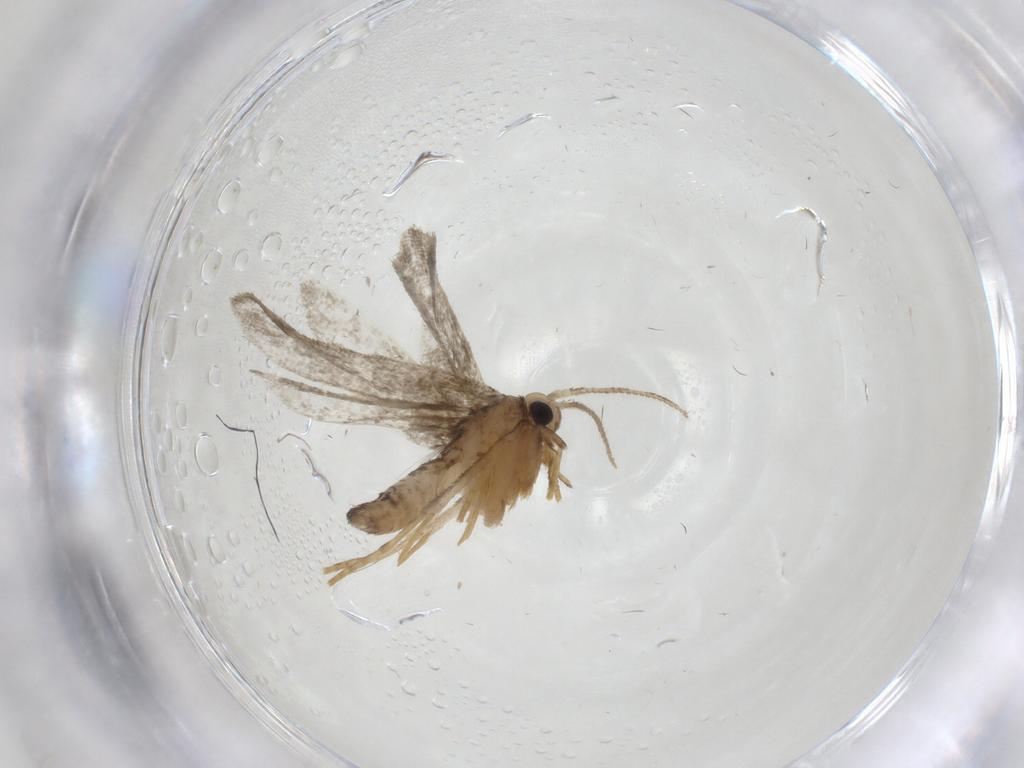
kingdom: Animalia
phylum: Arthropoda
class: Insecta
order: Lepidoptera
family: Psychidae
